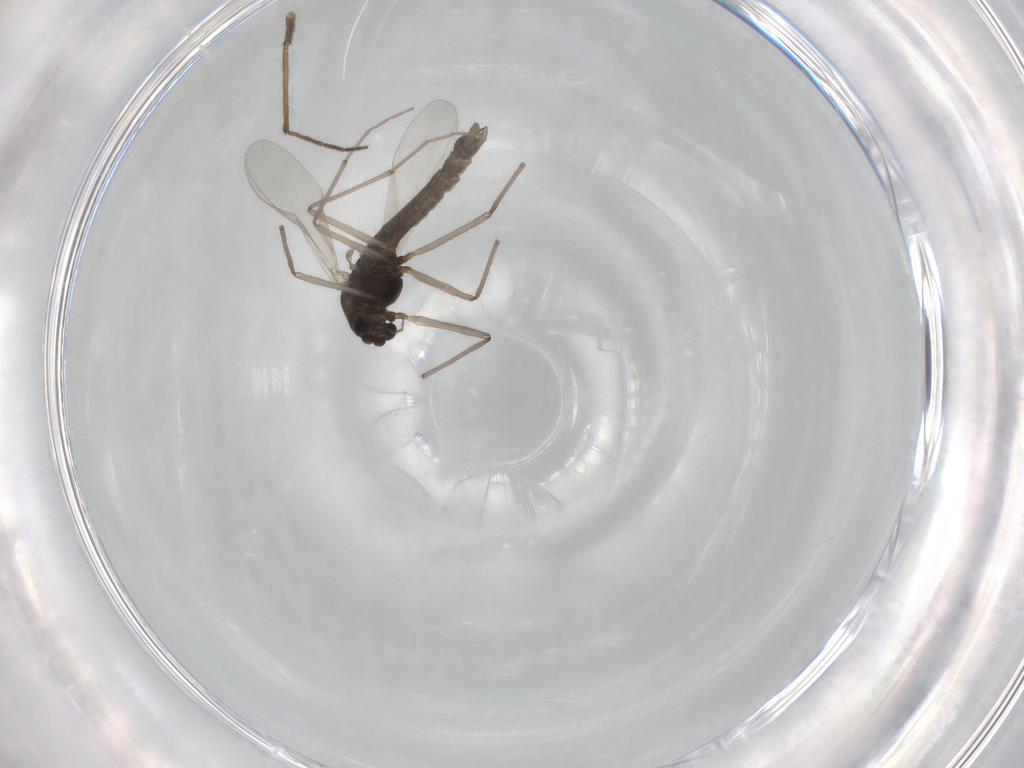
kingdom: Animalia
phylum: Arthropoda
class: Insecta
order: Diptera
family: Chironomidae
